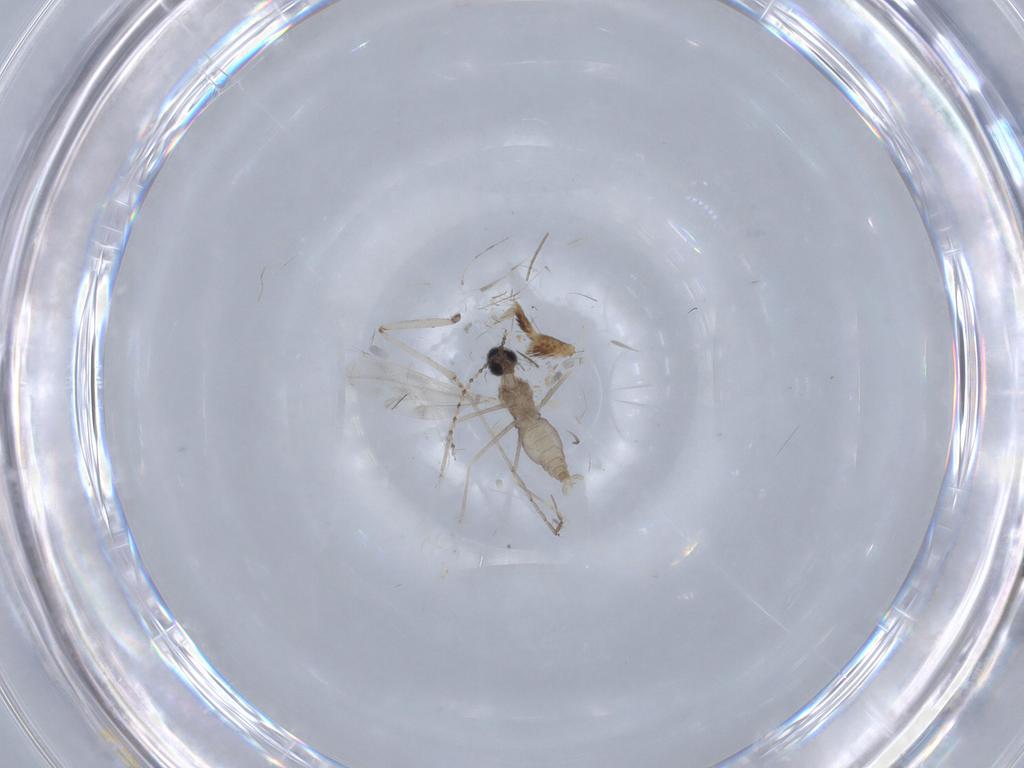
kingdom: Animalia
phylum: Arthropoda
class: Insecta
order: Diptera
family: Cecidomyiidae
